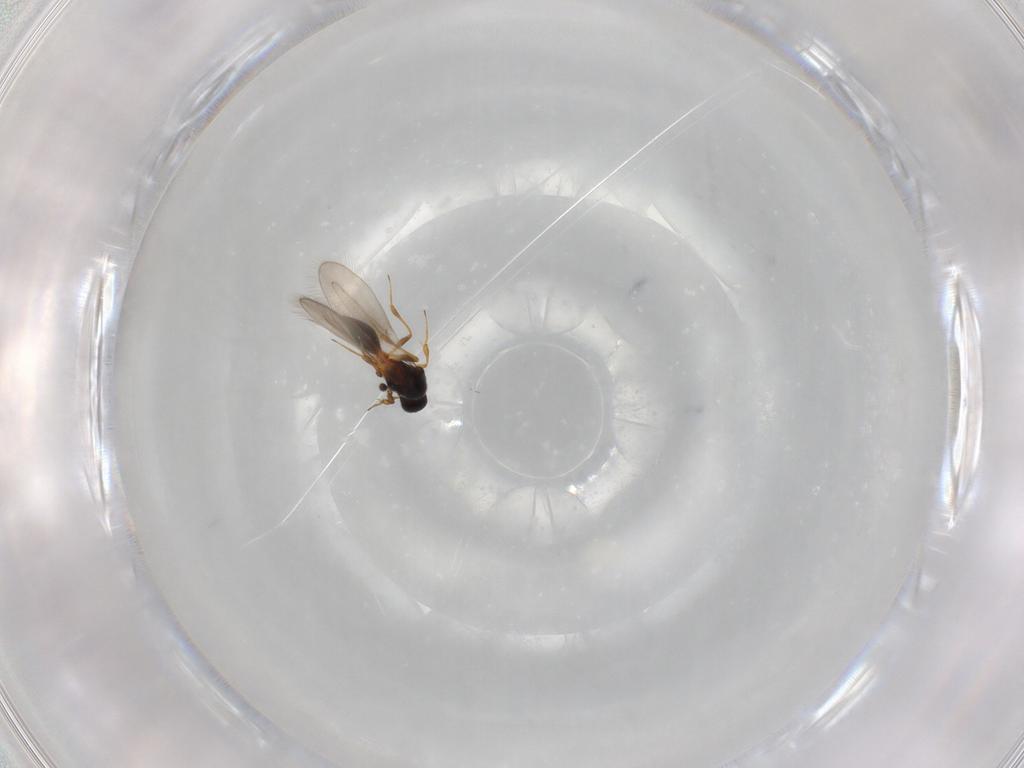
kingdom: Animalia
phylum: Arthropoda
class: Insecta
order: Hymenoptera
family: Platygastridae
